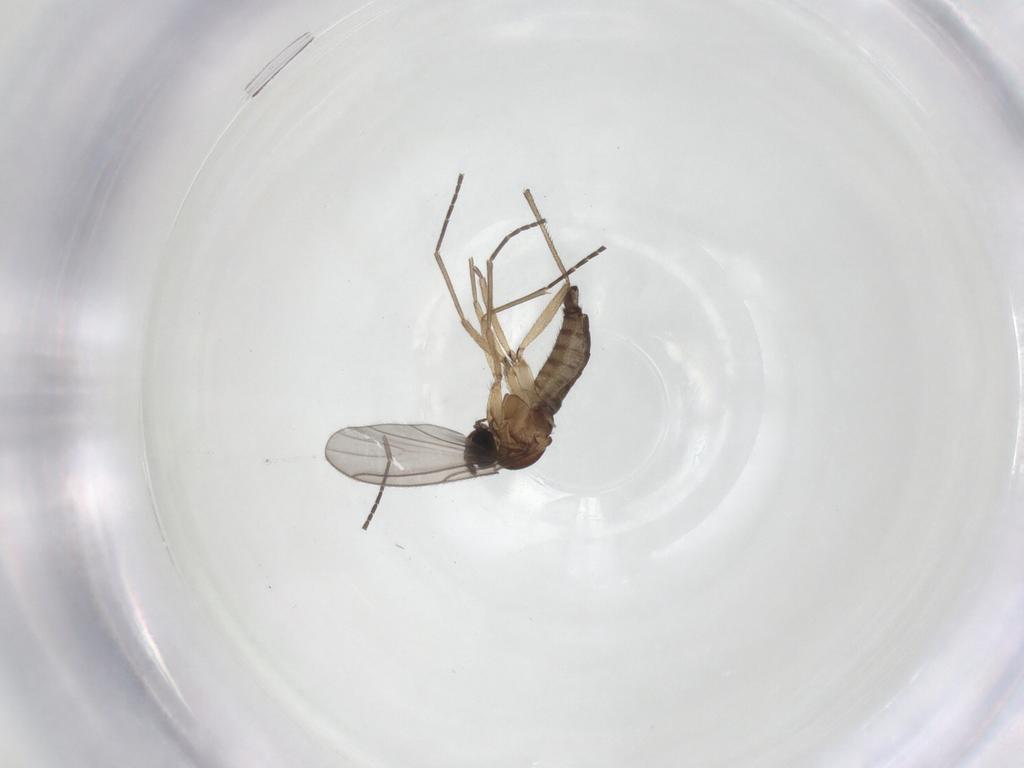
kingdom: Animalia
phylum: Arthropoda
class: Insecta
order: Diptera
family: Sciaridae
